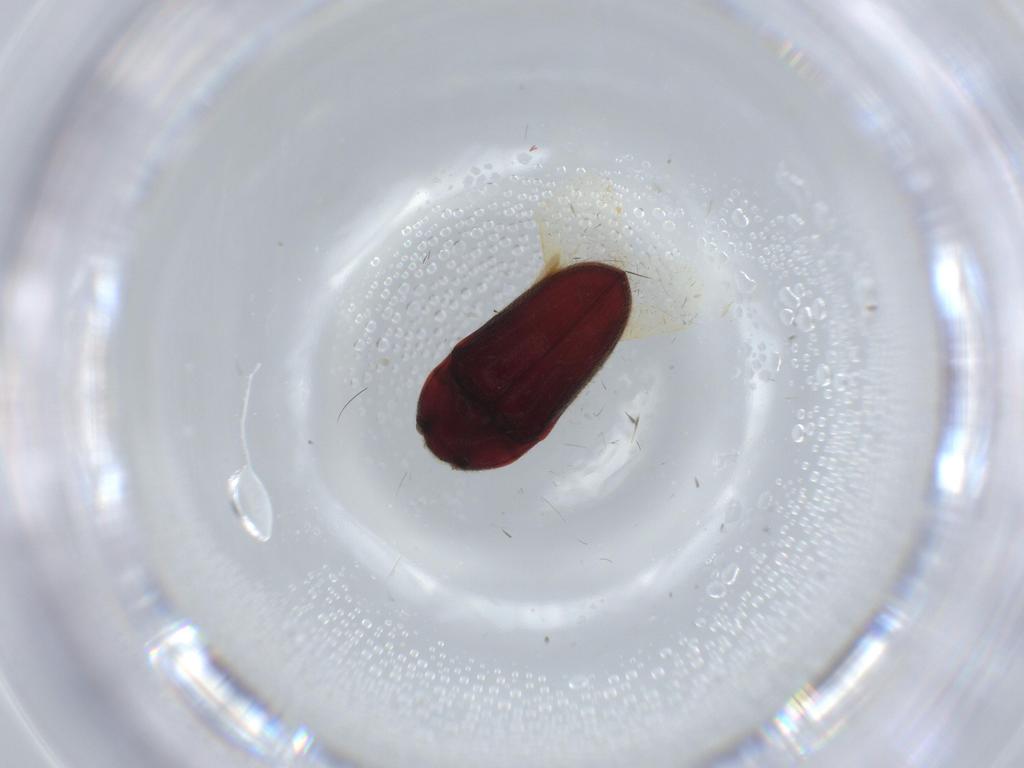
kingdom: Animalia
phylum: Arthropoda
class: Insecta
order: Coleoptera
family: Throscidae
